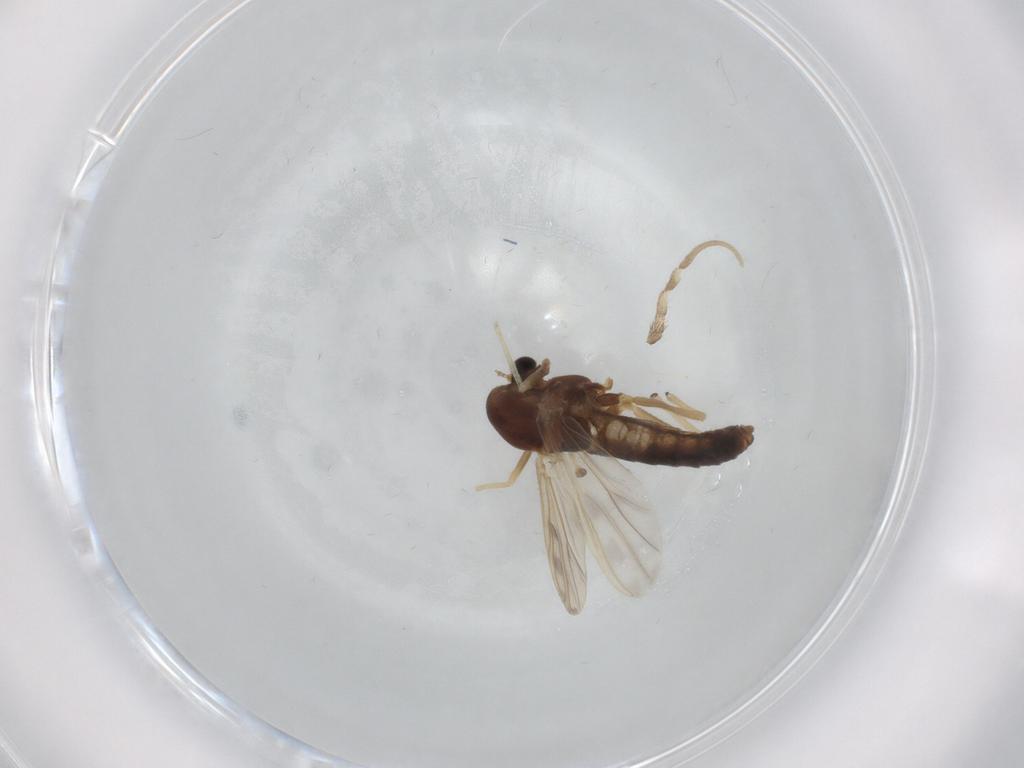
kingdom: Animalia
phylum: Arthropoda
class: Insecta
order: Diptera
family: Chironomidae
